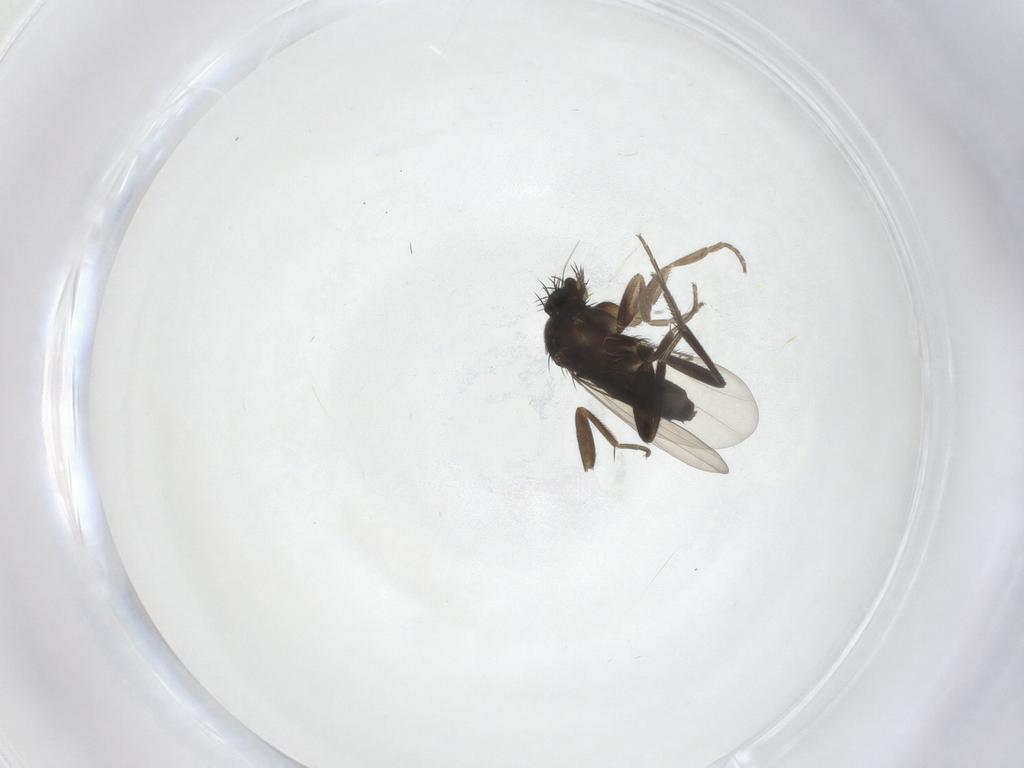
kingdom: Animalia
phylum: Arthropoda
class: Insecta
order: Diptera
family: Phoridae
